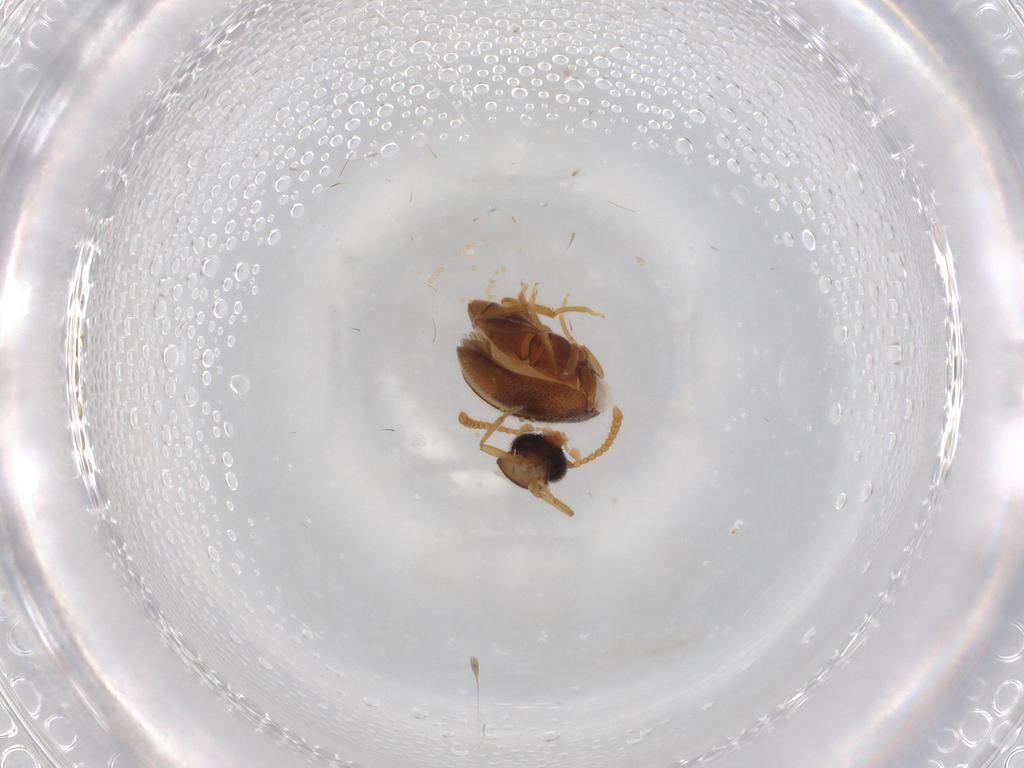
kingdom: Animalia
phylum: Arthropoda
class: Insecta
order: Coleoptera
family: Aderidae
